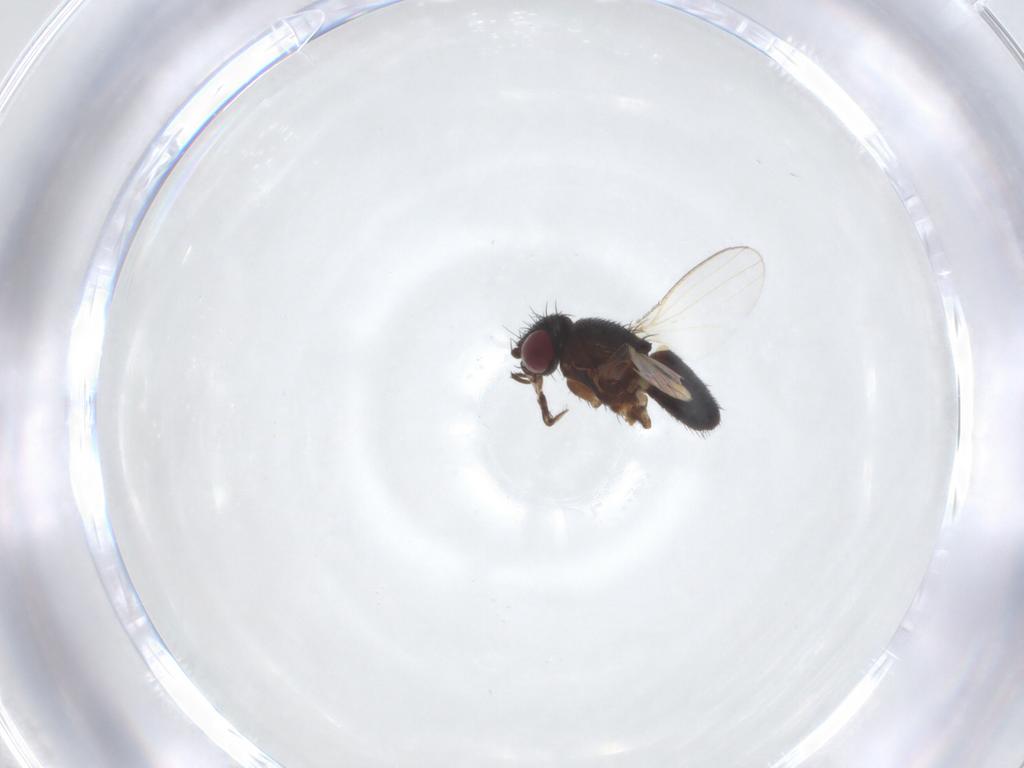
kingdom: Animalia
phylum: Arthropoda
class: Insecta
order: Diptera
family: Milichiidae
